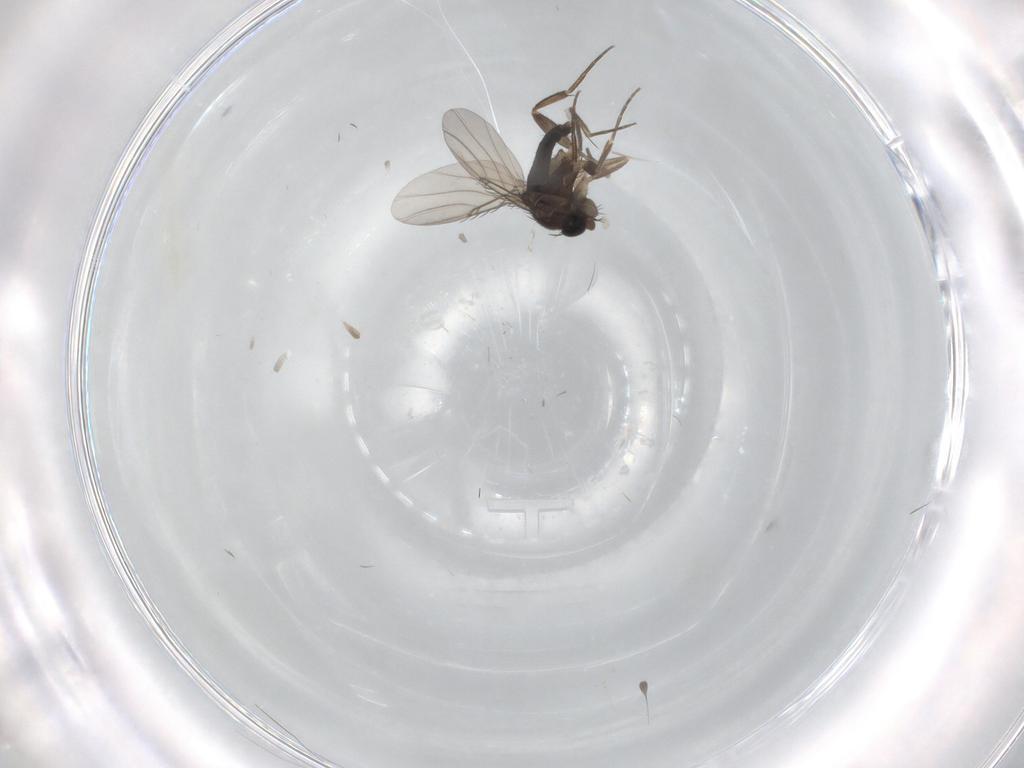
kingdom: Animalia
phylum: Arthropoda
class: Insecta
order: Diptera
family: Phoridae
